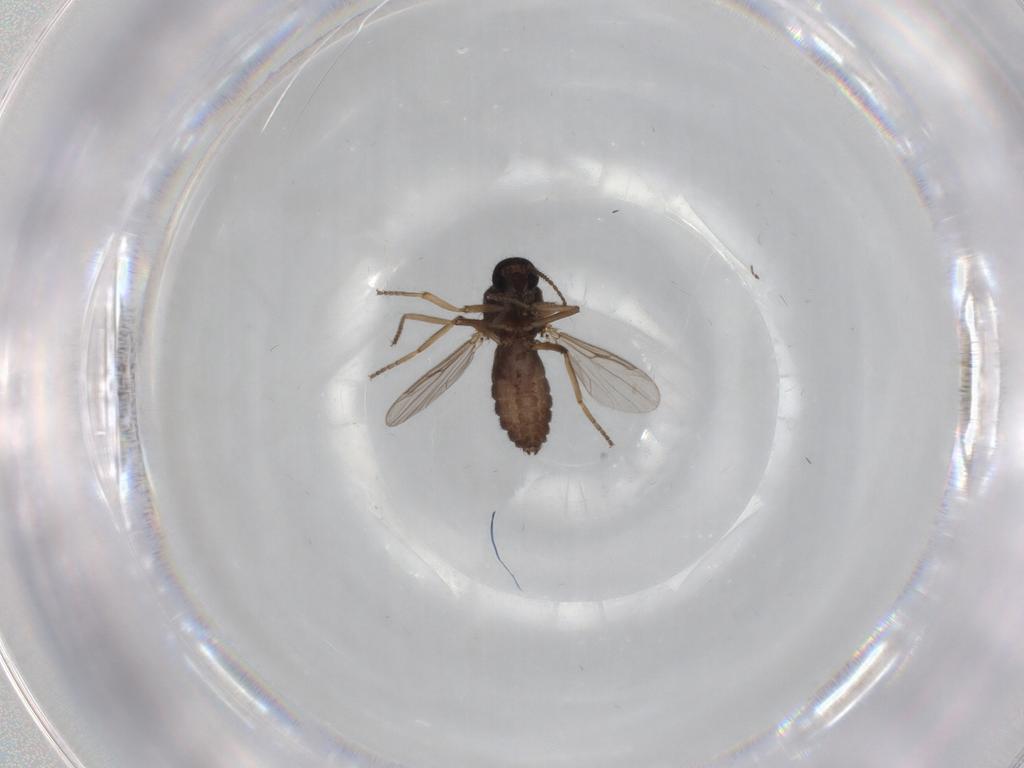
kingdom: Animalia
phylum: Arthropoda
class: Insecta
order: Diptera
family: Ceratopogonidae
